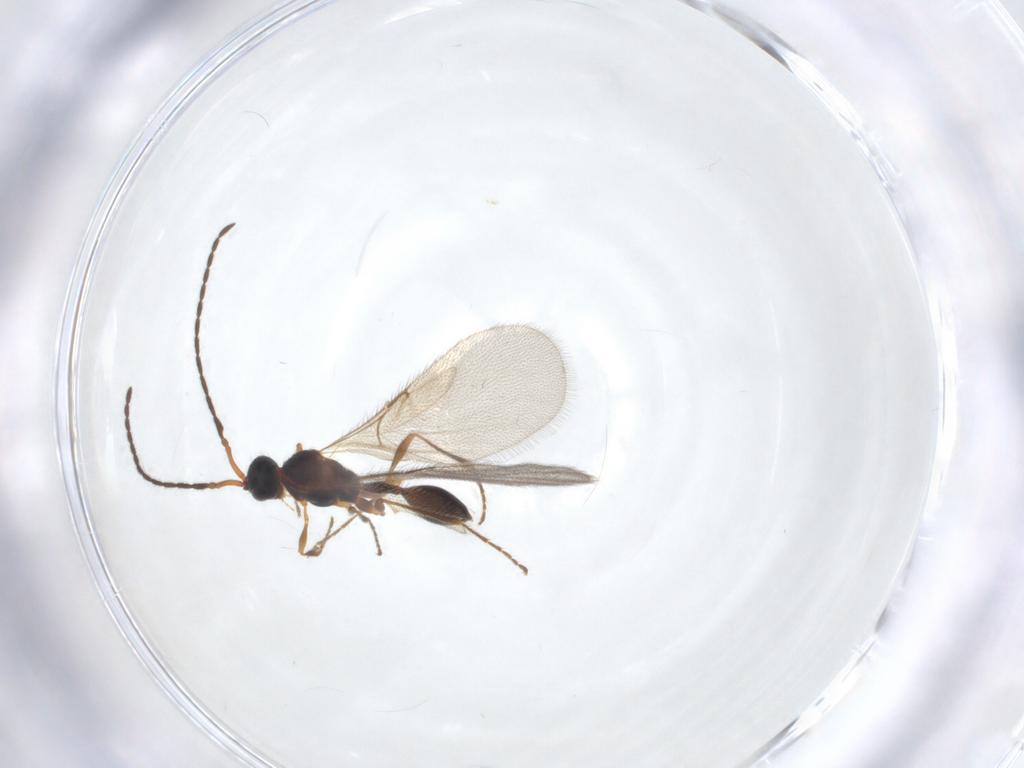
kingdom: Animalia
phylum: Arthropoda
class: Insecta
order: Hymenoptera
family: Diapriidae
